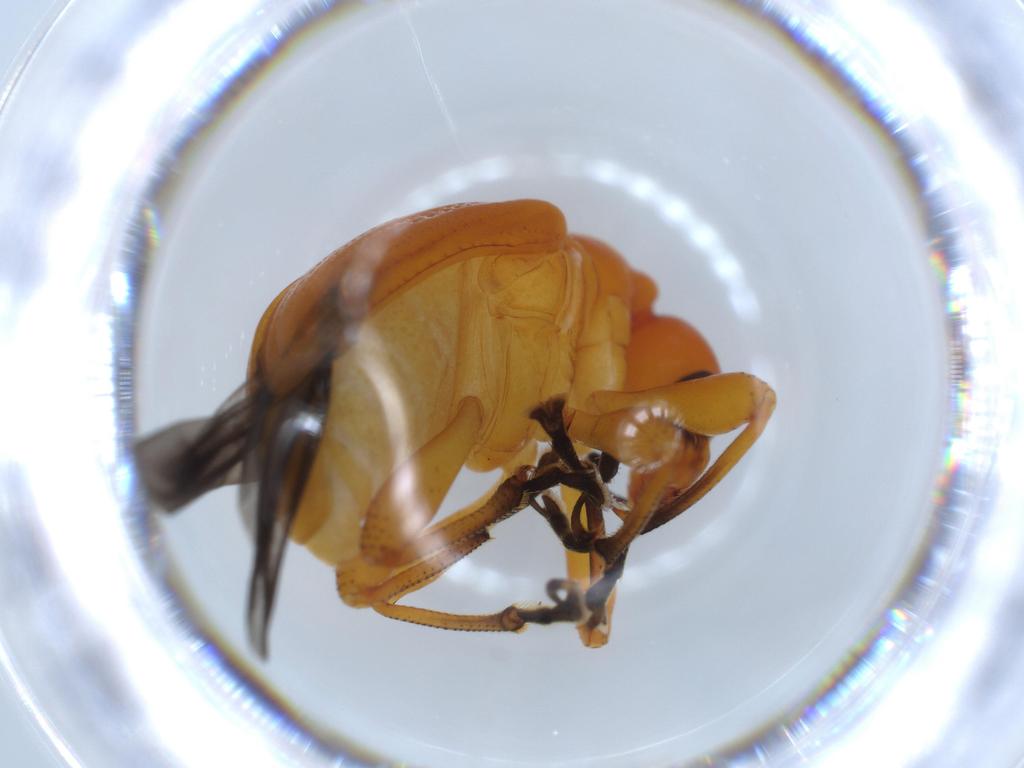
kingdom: Animalia
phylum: Arthropoda
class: Insecta
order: Coleoptera
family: Attelabidae
